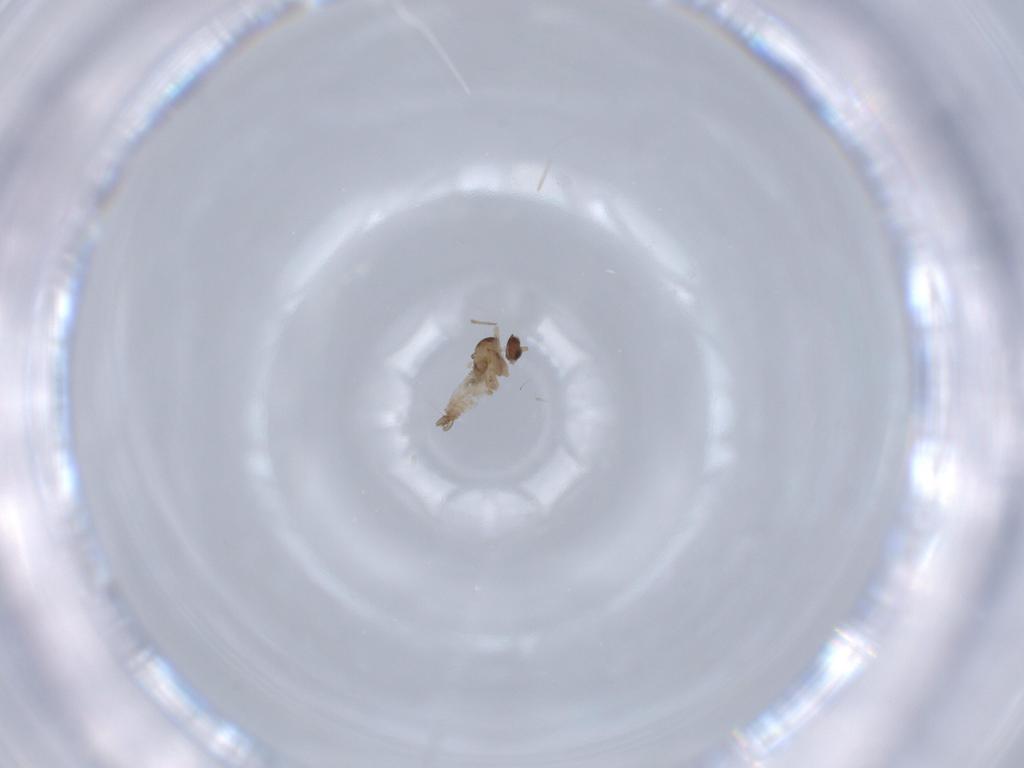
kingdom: Animalia
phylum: Arthropoda
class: Insecta
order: Diptera
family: Cecidomyiidae
